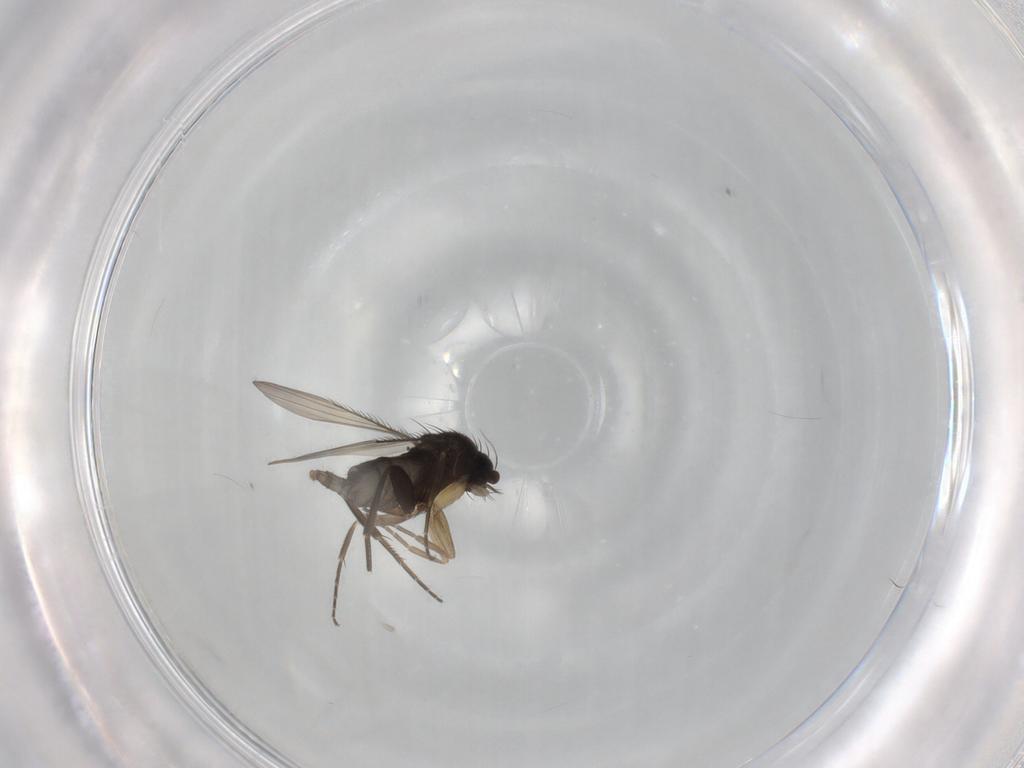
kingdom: Animalia
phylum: Arthropoda
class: Insecta
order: Diptera
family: Phoridae
